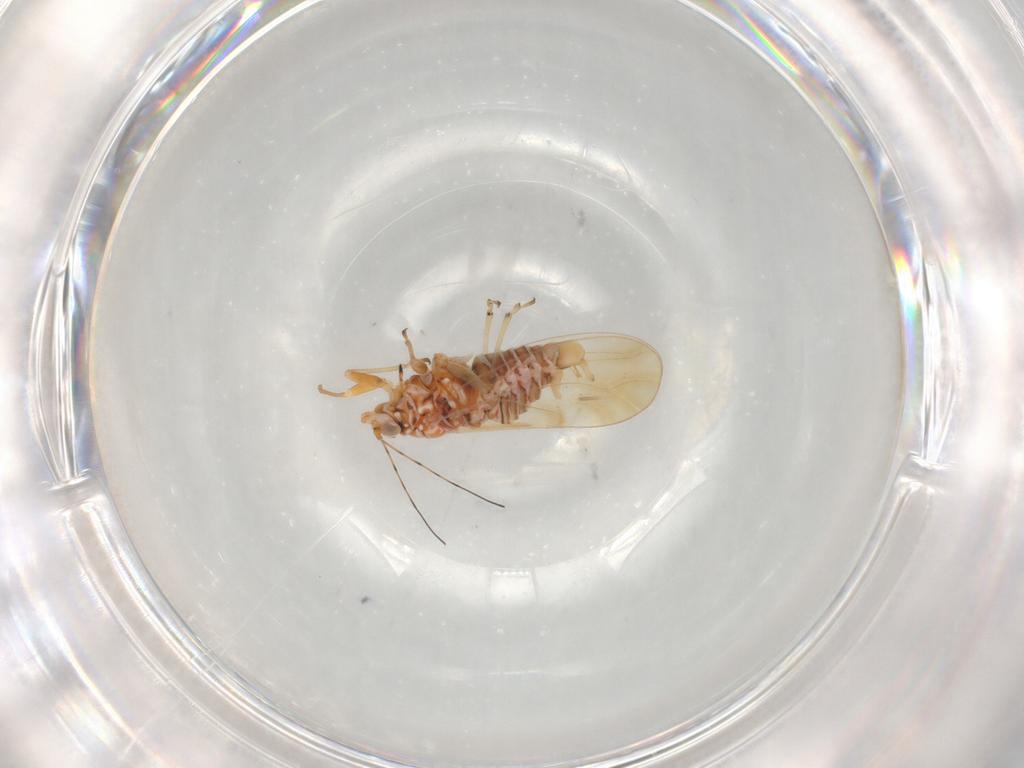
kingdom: Animalia
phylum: Arthropoda
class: Insecta
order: Hemiptera
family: Psyllidae
